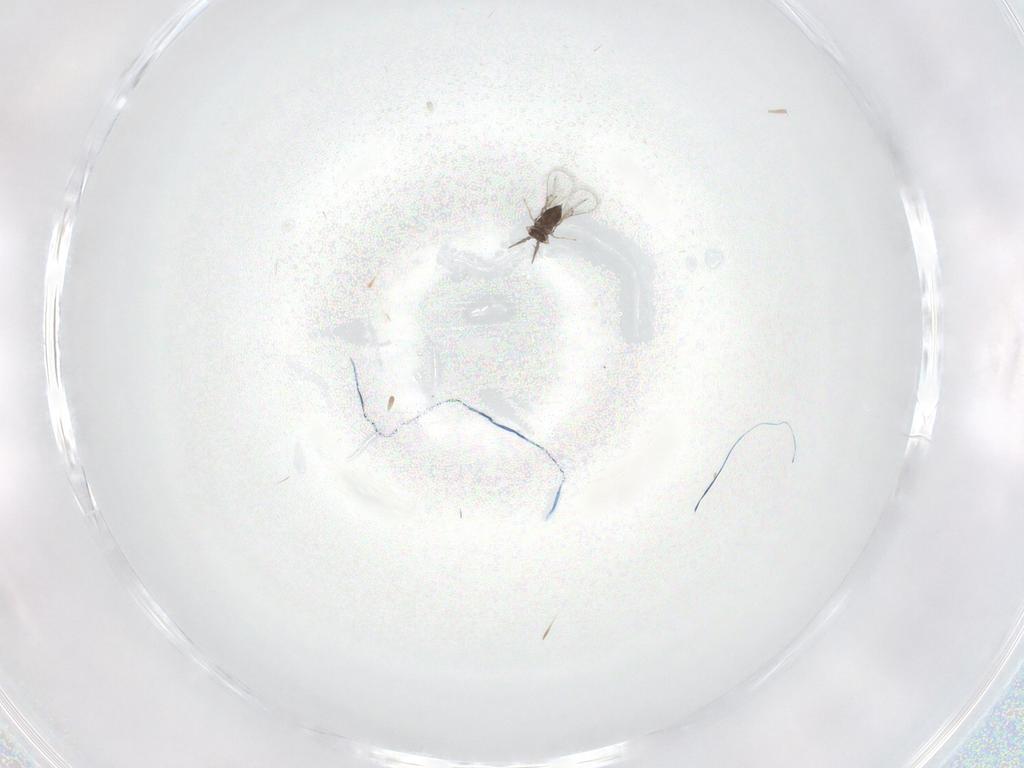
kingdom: Animalia
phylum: Arthropoda
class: Insecta
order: Hymenoptera
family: Trichogrammatidae
